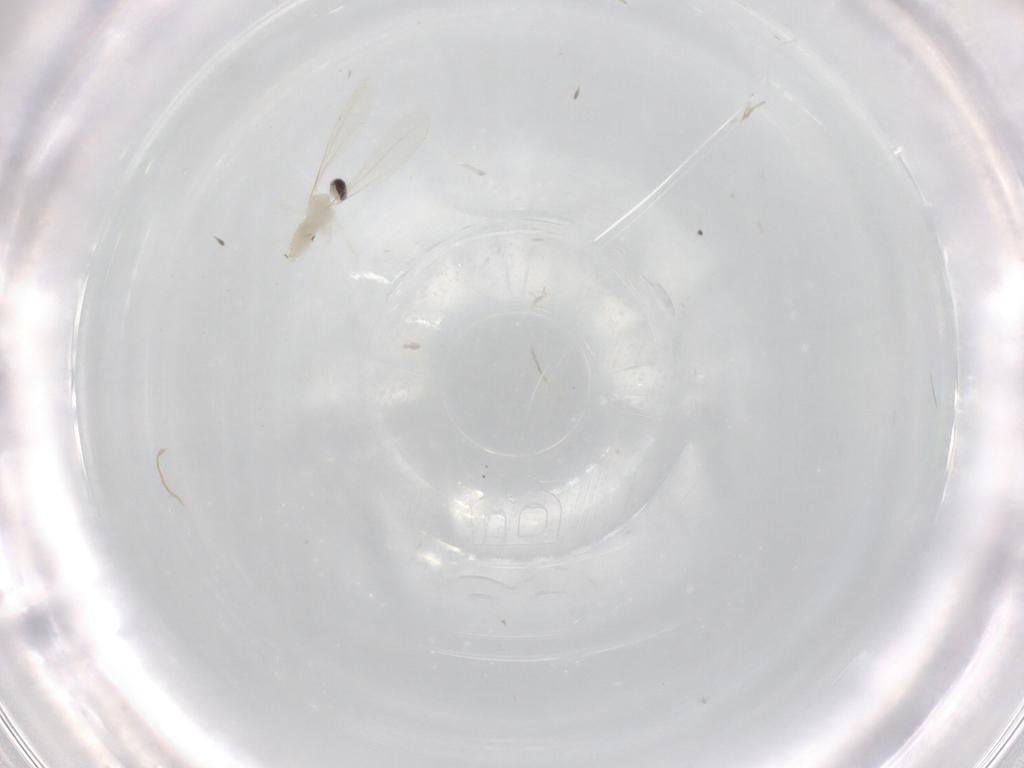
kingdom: Animalia
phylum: Arthropoda
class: Insecta
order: Diptera
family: Cecidomyiidae
